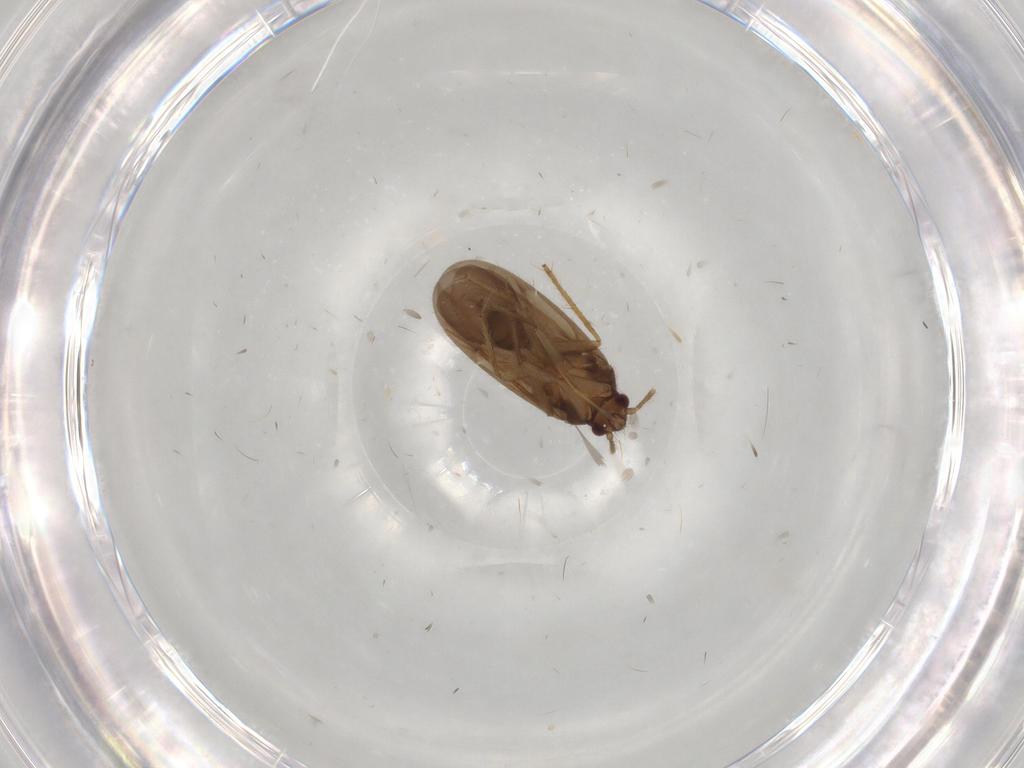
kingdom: Animalia
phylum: Arthropoda
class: Insecta
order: Hemiptera
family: Ceratocombidae
